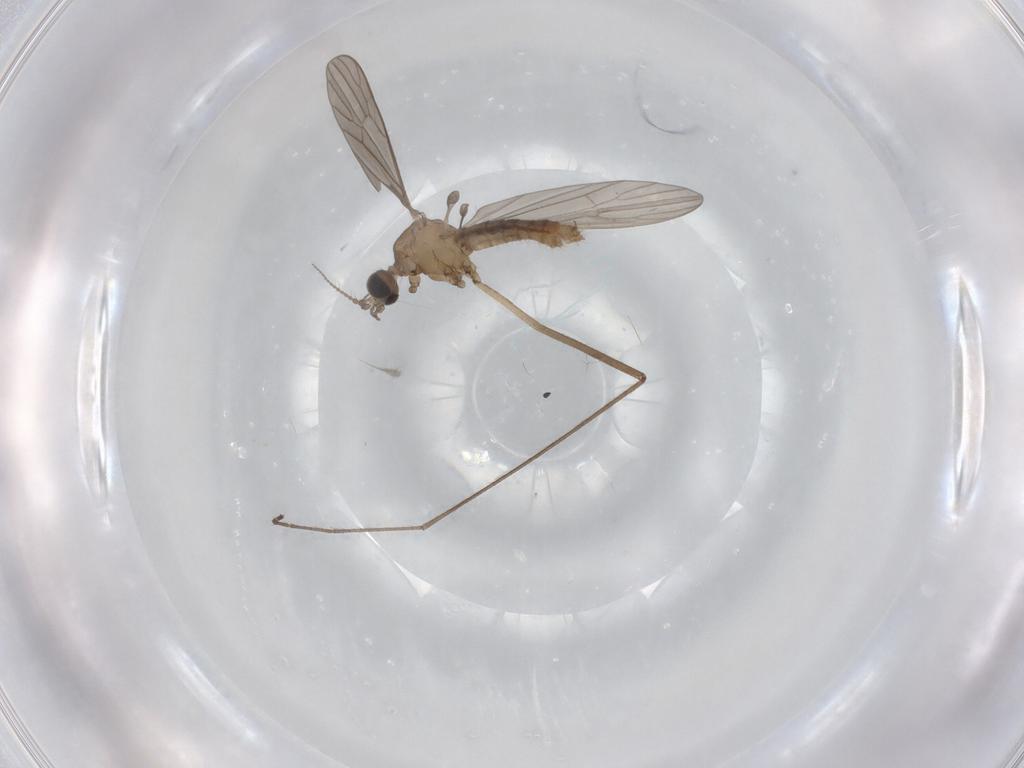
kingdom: Animalia
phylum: Arthropoda
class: Insecta
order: Diptera
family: Limoniidae
